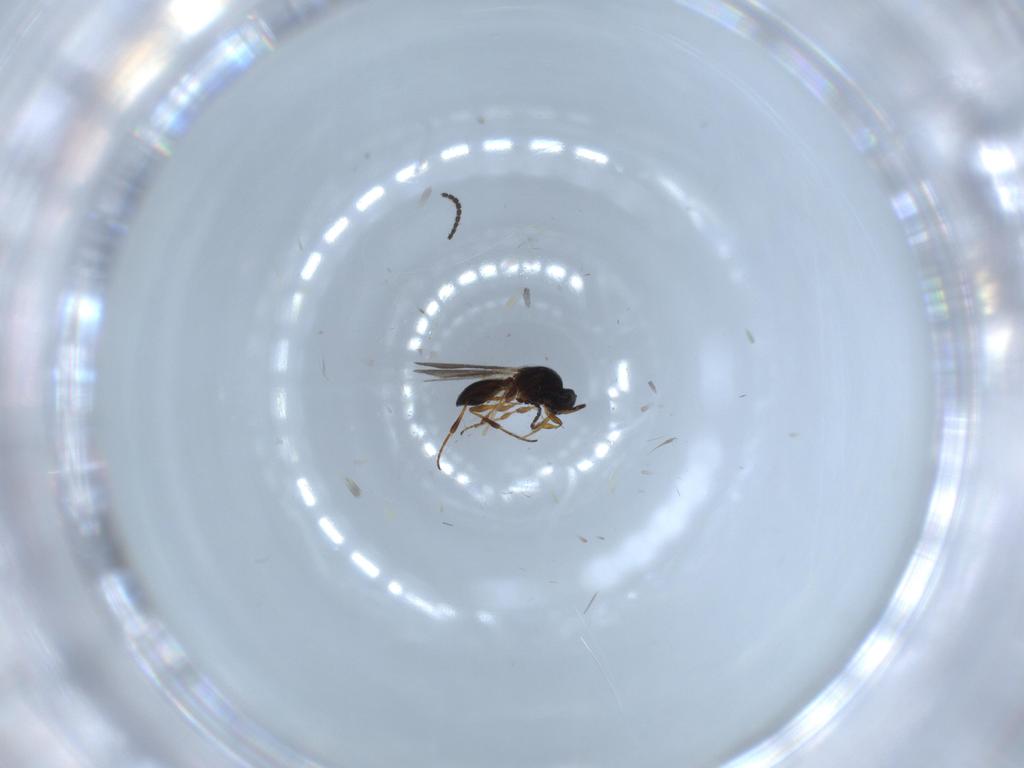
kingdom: Animalia
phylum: Arthropoda
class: Insecta
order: Diptera
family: Chironomidae
